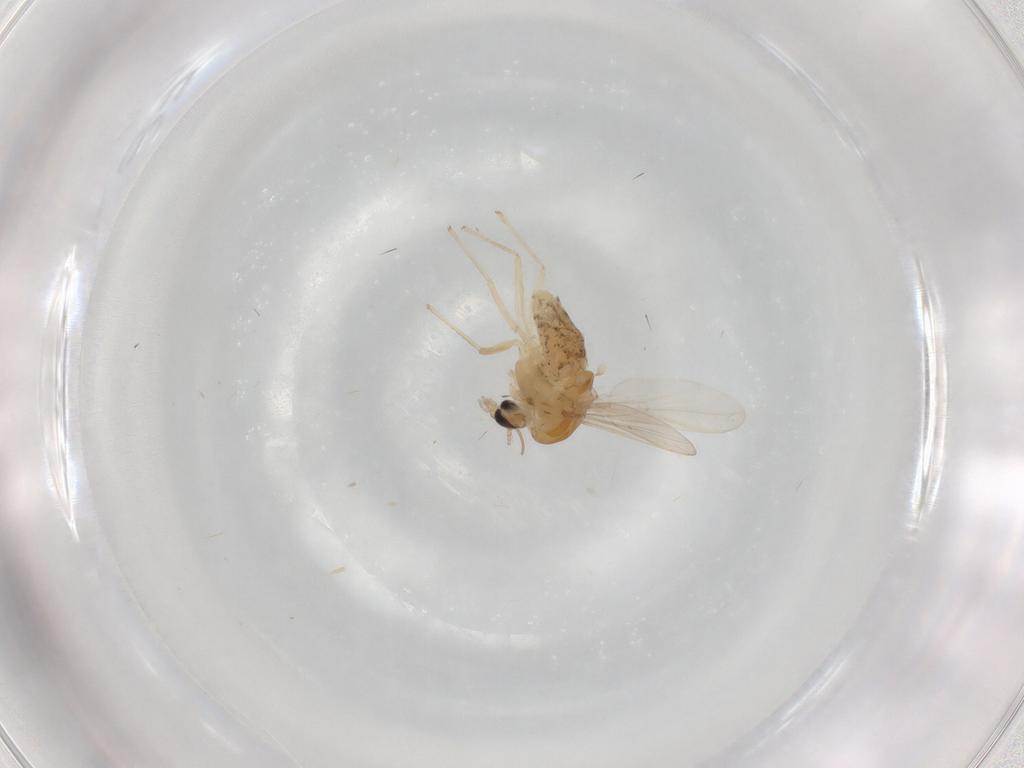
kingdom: Animalia
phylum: Arthropoda
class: Insecta
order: Diptera
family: Chironomidae
